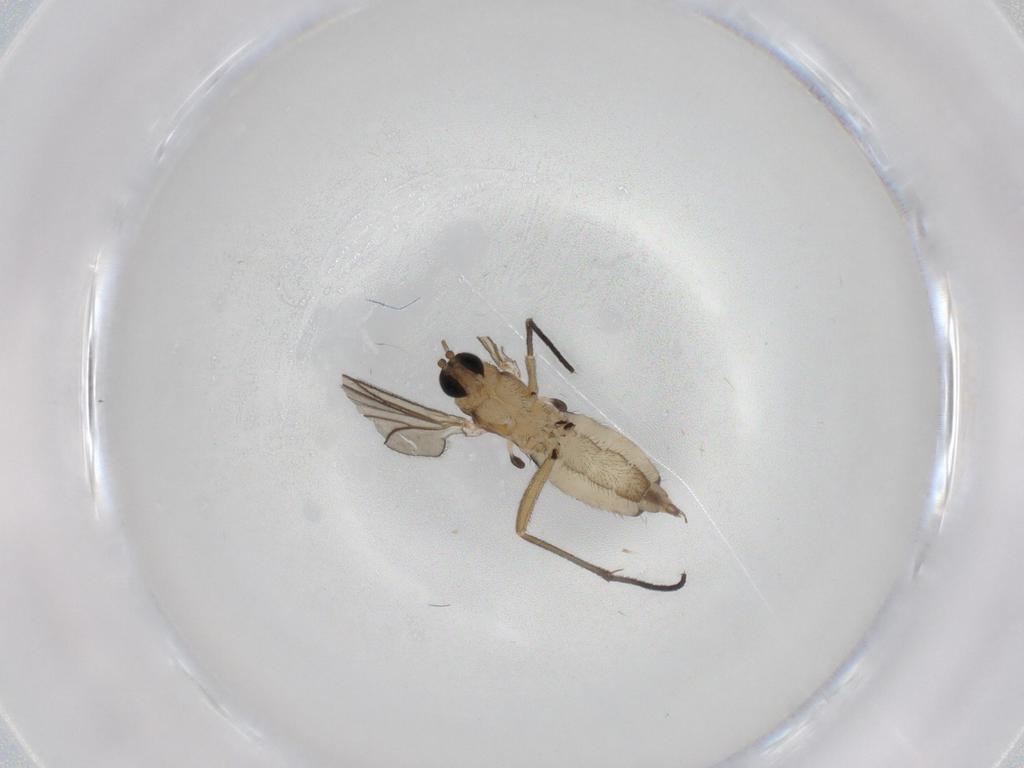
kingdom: Animalia
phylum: Arthropoda
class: Insecta
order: Diptera
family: Sciaridae
